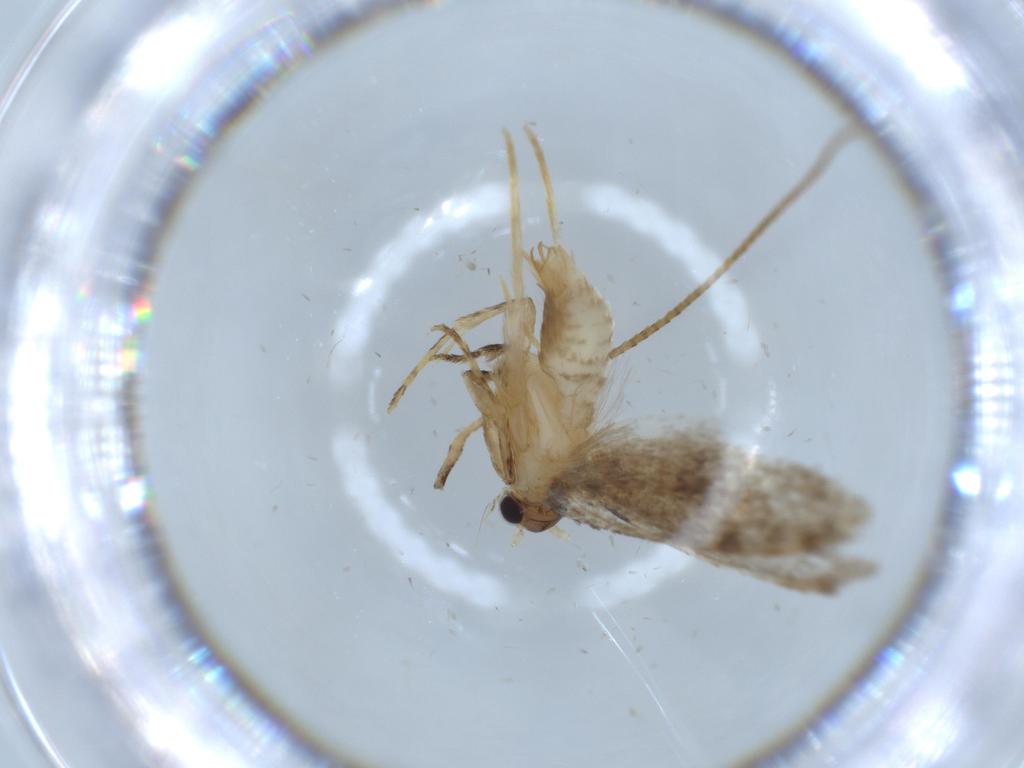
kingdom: Animalia
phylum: Arthropoda
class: Insecta
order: Lepidoptera
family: Tineidae
